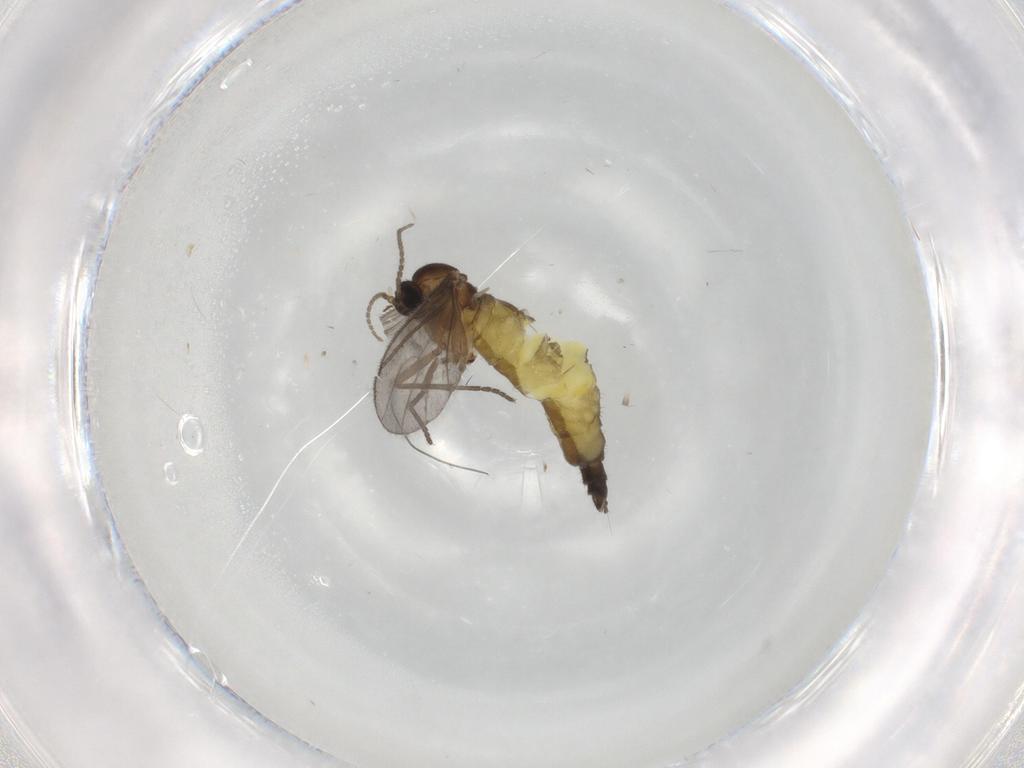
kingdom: Animalia
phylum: Arthropoda
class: Insecta
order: Diptera
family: Sciaridae
